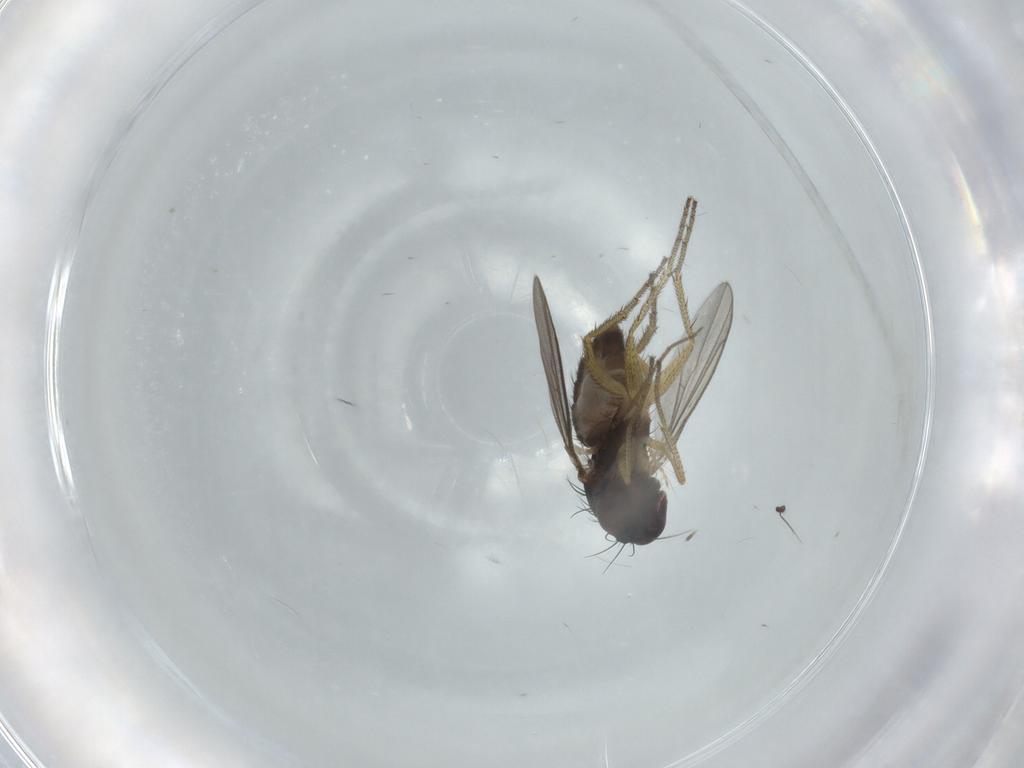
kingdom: Animalia
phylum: Arthropoda
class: Insecta
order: Diptera
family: Dolichopodidae
